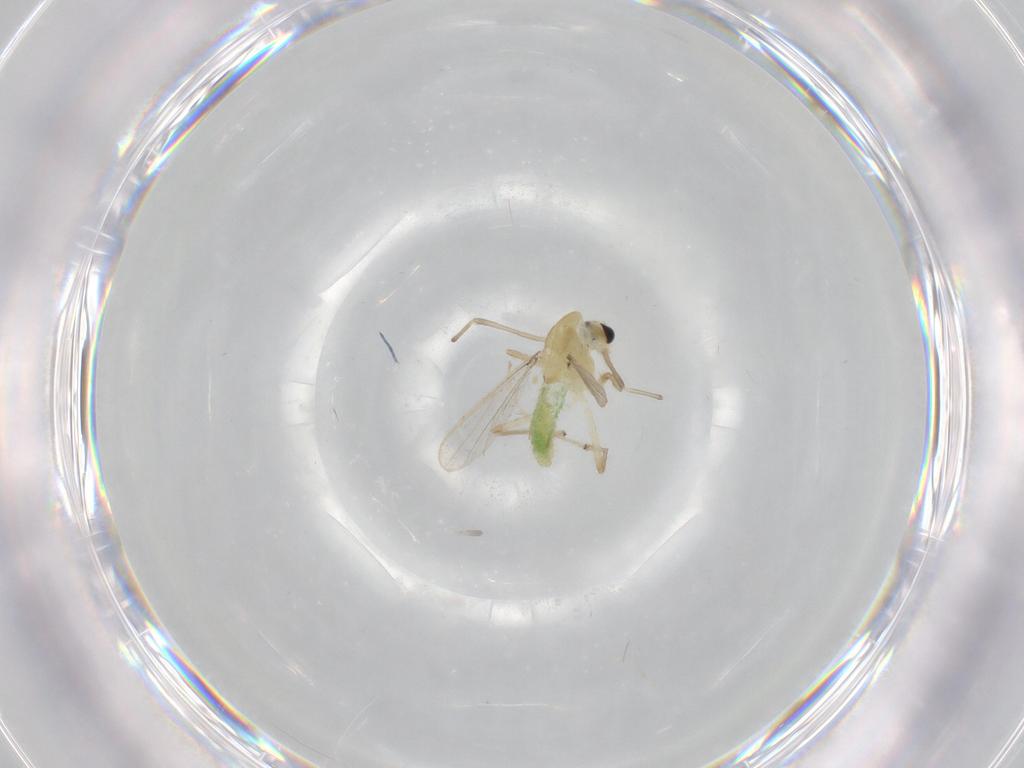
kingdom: Animalia
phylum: Arthropoda
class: Insecta
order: Diptera
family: Chironomidae
